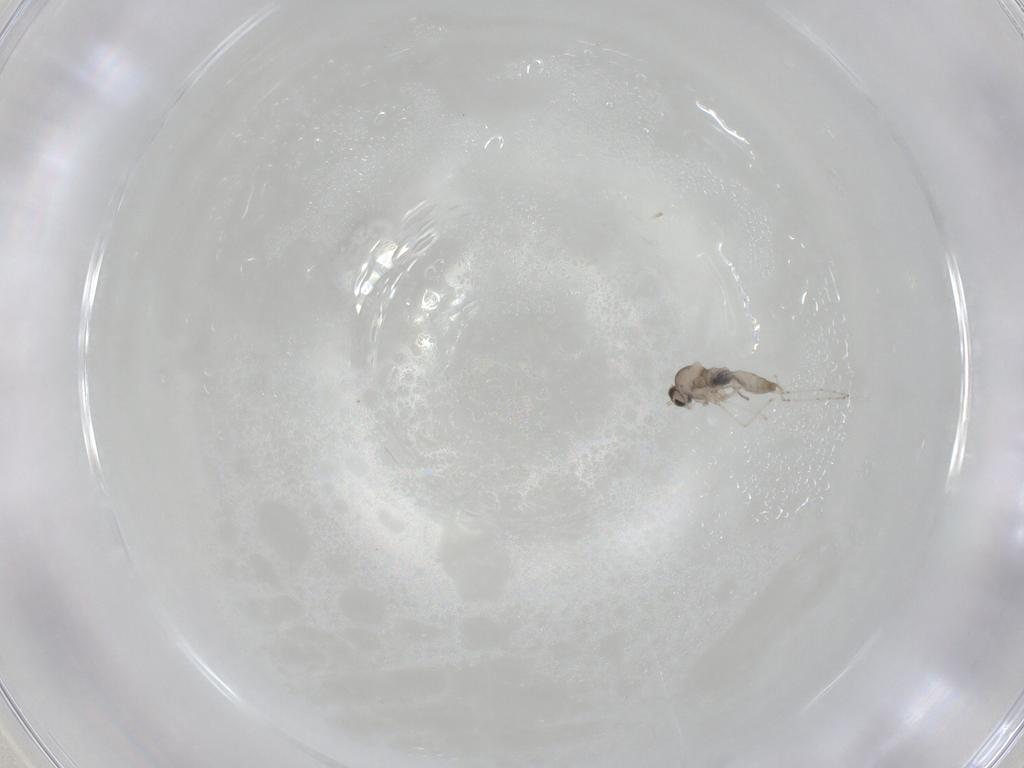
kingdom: Animalia
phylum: Arthropoda
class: Insecta
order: Diptera
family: Cecidomyiidae
